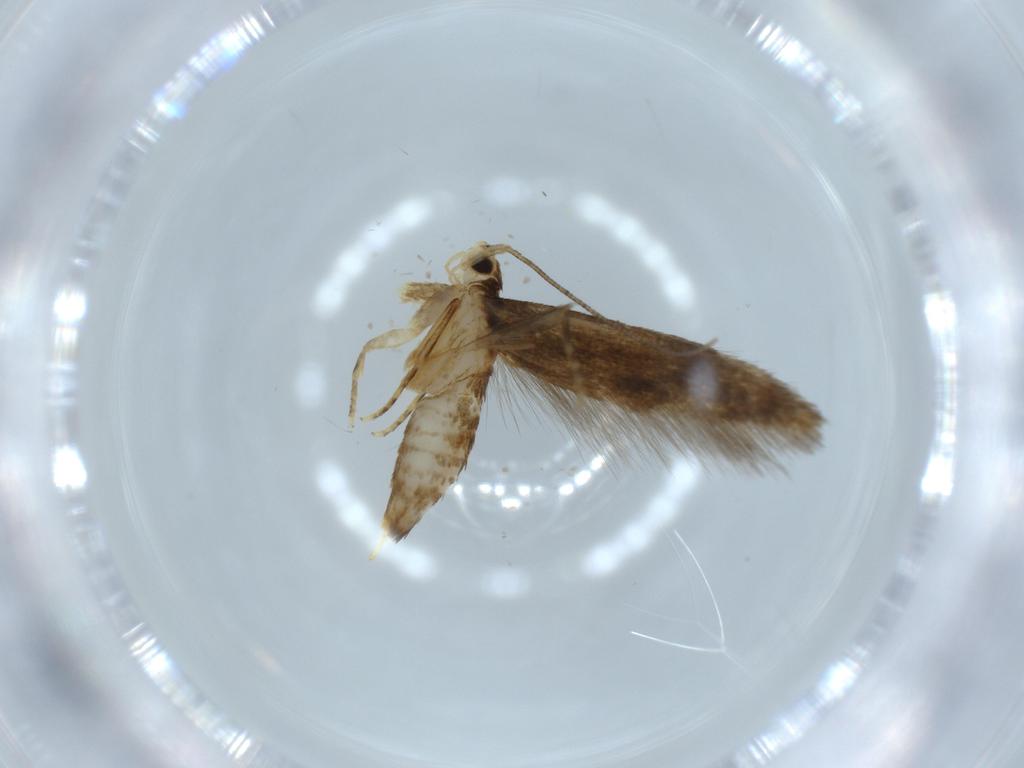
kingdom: Animalia
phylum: Arthropoda
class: Insecta
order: Lepidoptera
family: Tineidae
